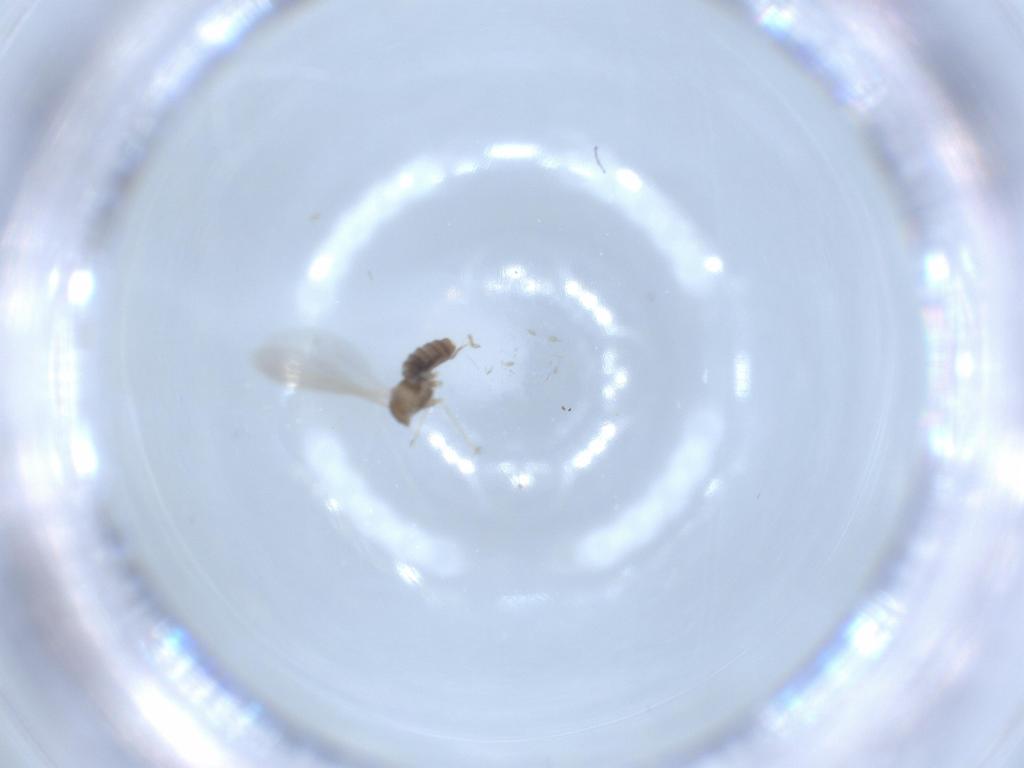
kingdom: Animalia
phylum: Arthropoda
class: Insecta
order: Diptera
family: Cecidomyiidae
